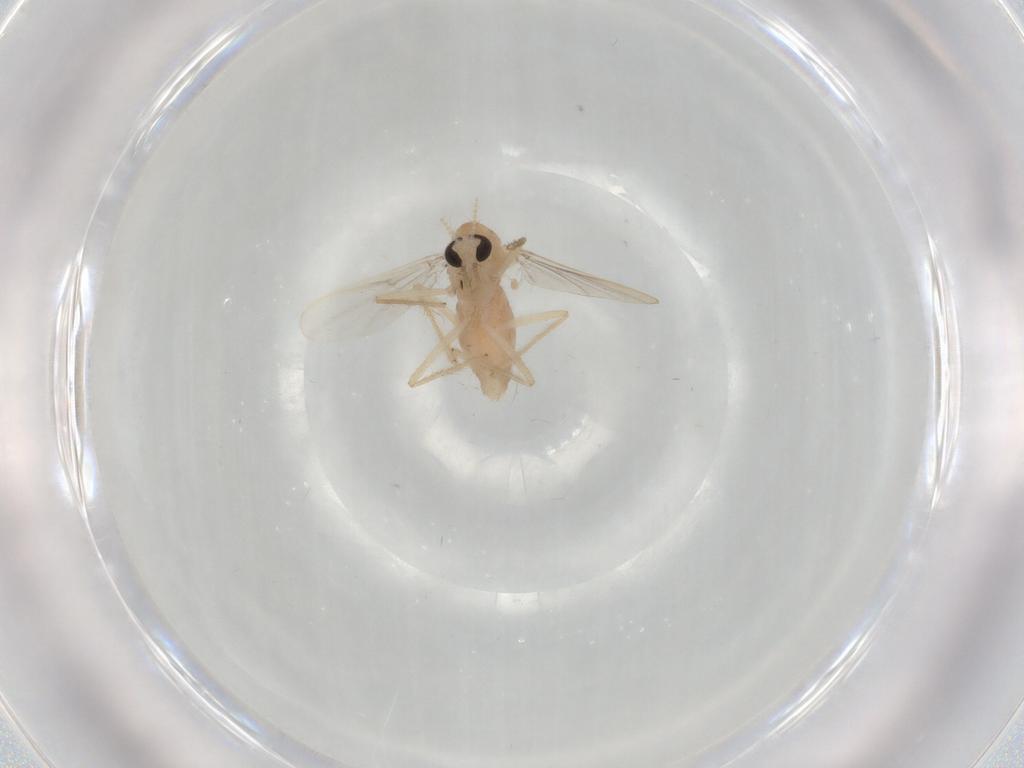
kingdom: Animalia
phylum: Arthropoda
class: Insecta
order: Diptera
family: Chironomidae
